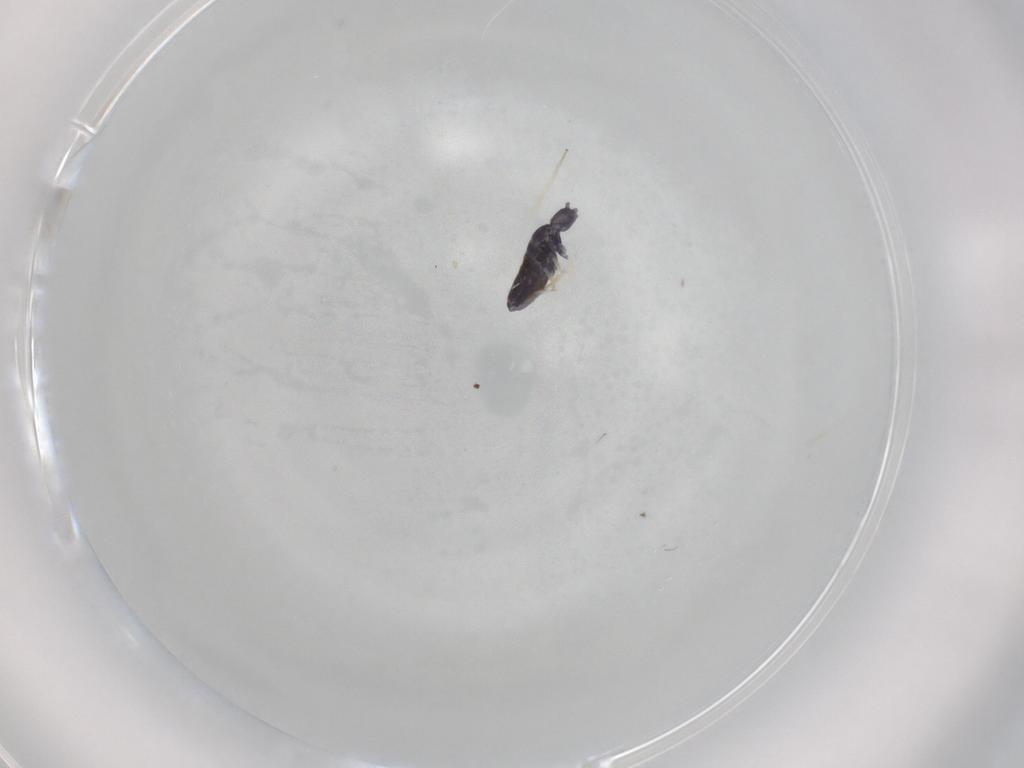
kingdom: Animalia
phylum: Arthropoda
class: Collembola
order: Entomobryomorpha
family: Entomobryidae
